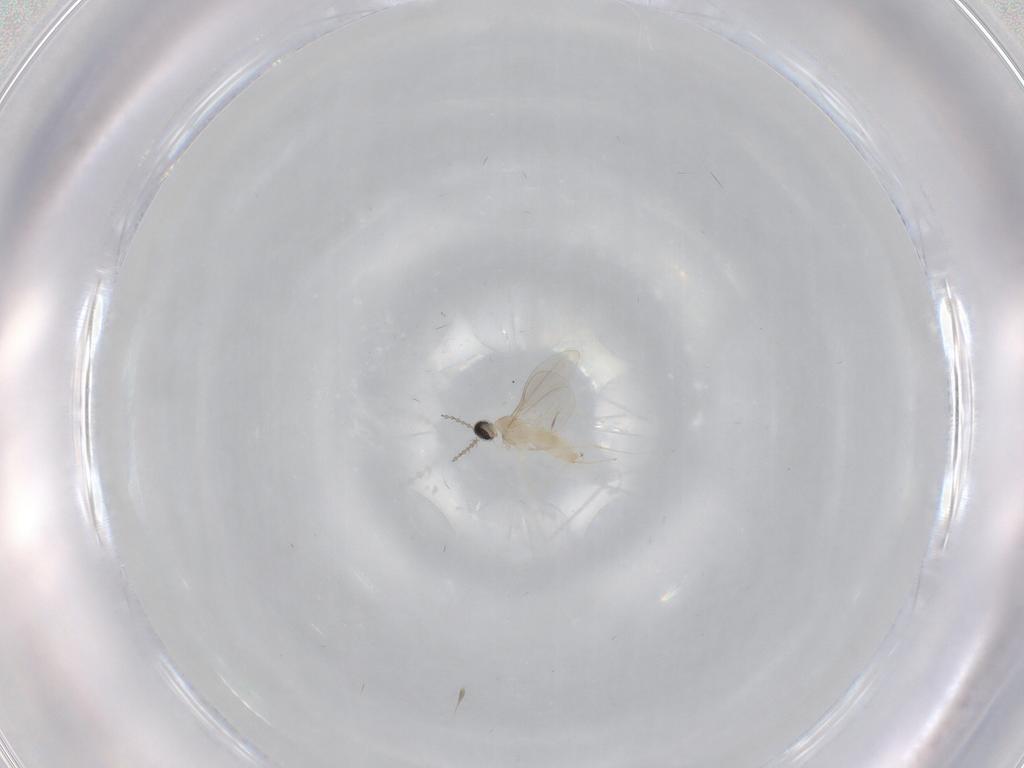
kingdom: Animalia
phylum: Arthropoda
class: Insecta
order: Diptera
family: Cecidomyiidae
